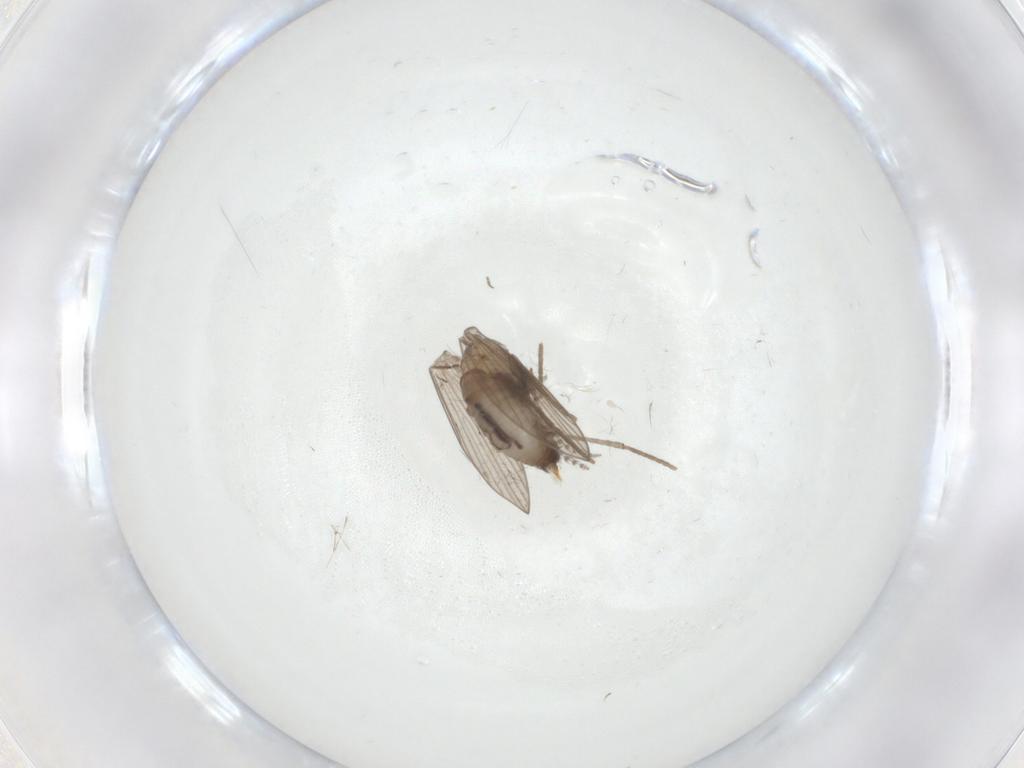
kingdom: Animalia
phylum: Arthropoda
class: Insecta
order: Diptera
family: Psychodidae
